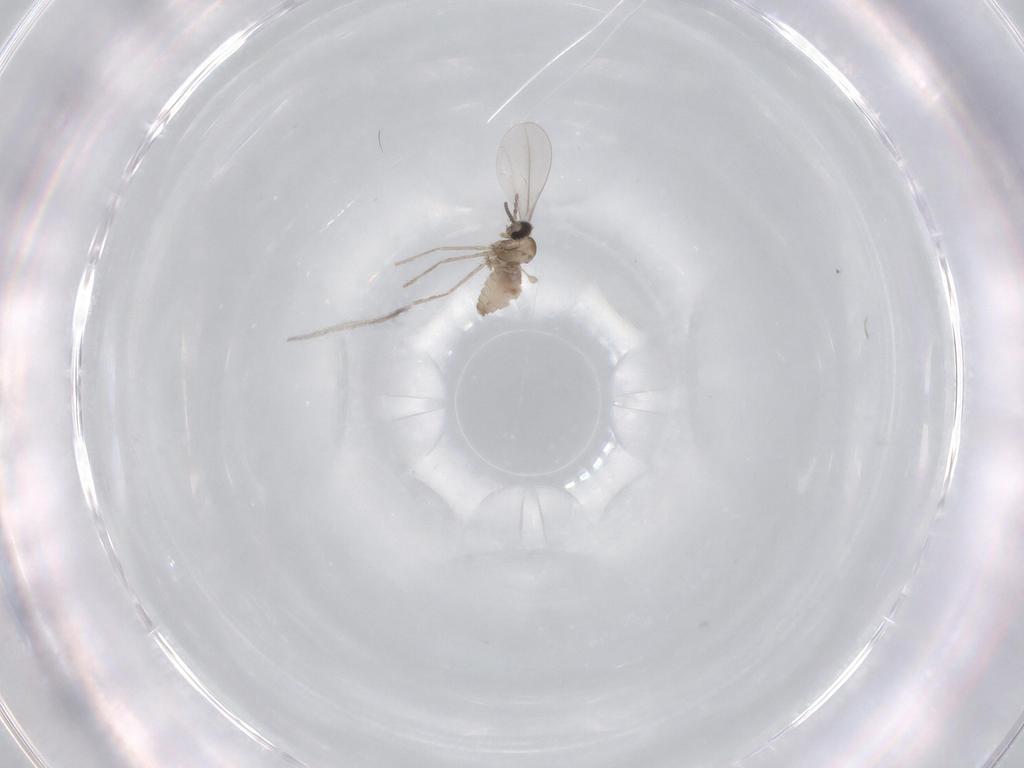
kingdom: Animalia
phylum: Arthropoda
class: Insecta
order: Diptera
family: Cecidomyiidae
